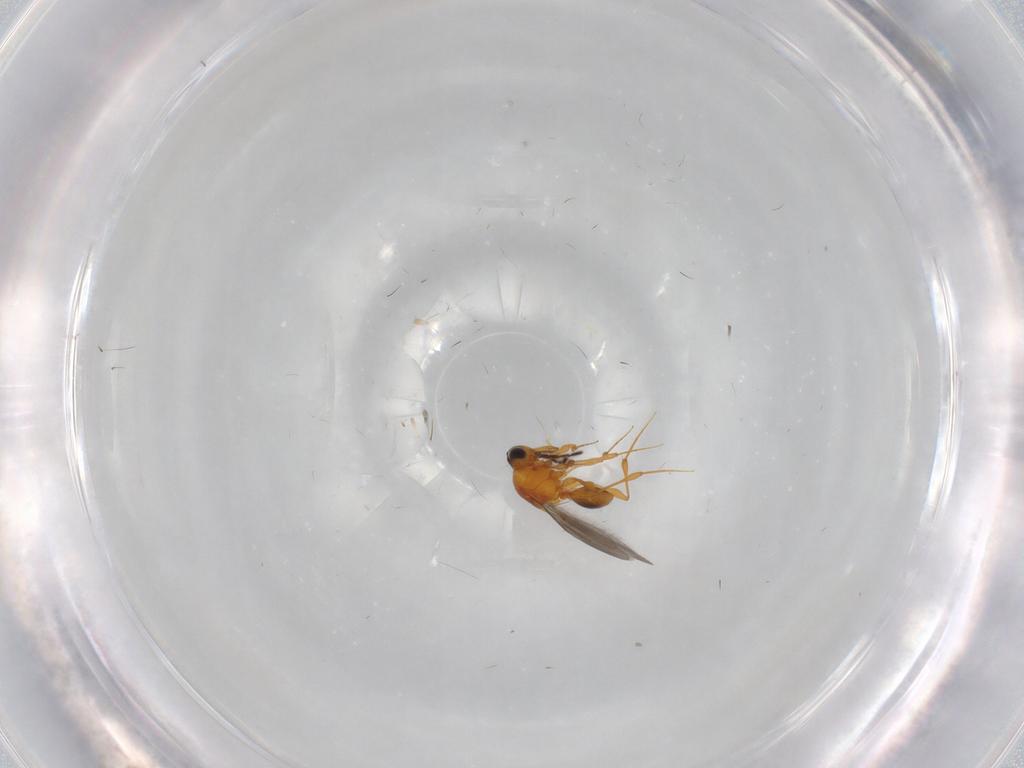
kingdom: Animalia
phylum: Arthropoda
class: Insecta
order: Hymenoptera
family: Platygastridae
